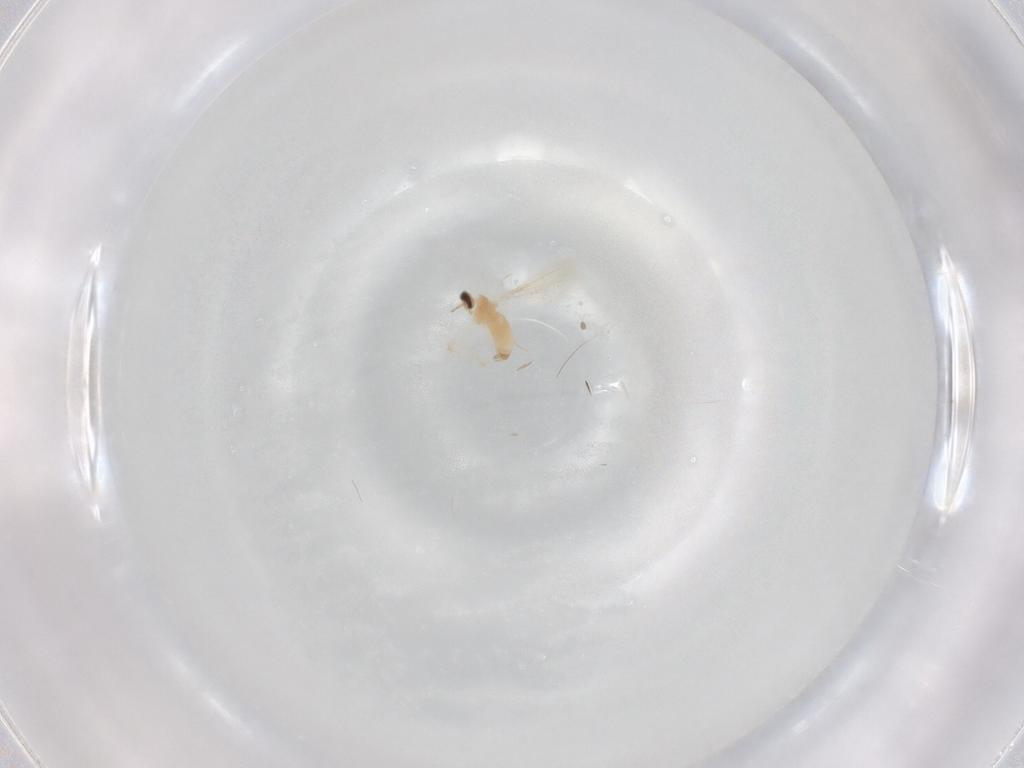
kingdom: Animalia
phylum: Arthropoda
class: Insecta
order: Diptera
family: Cecidomyiidae
